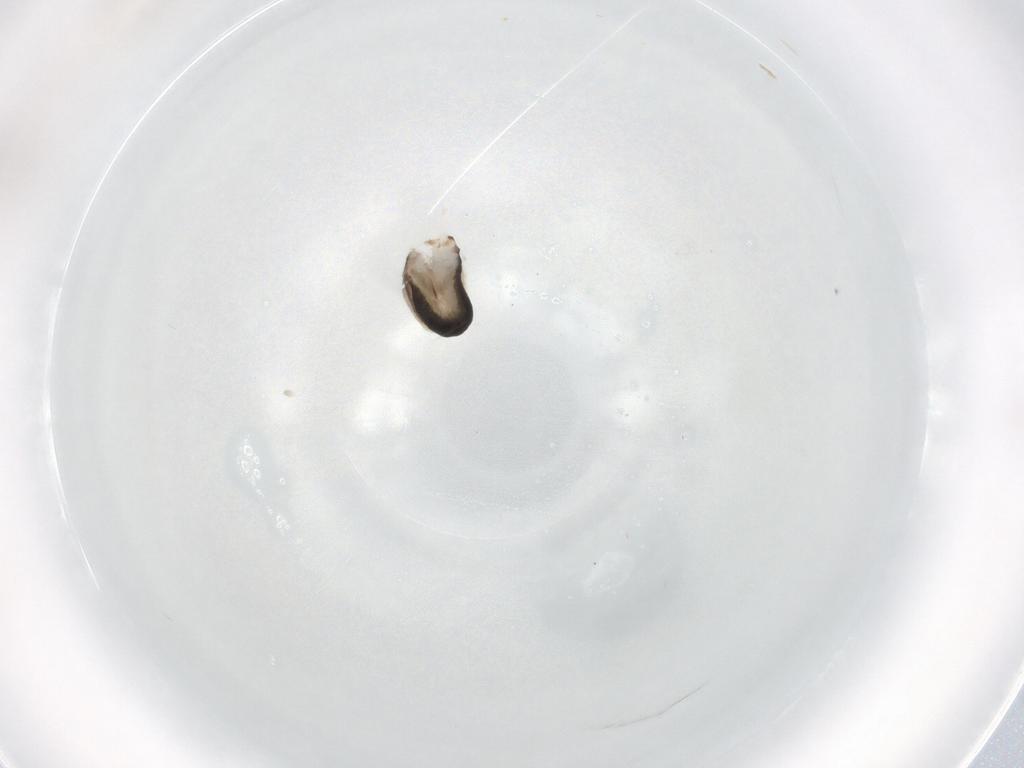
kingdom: Animalia
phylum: Arthropoda
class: Insecta
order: Hymenoptera
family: Dryinidae
